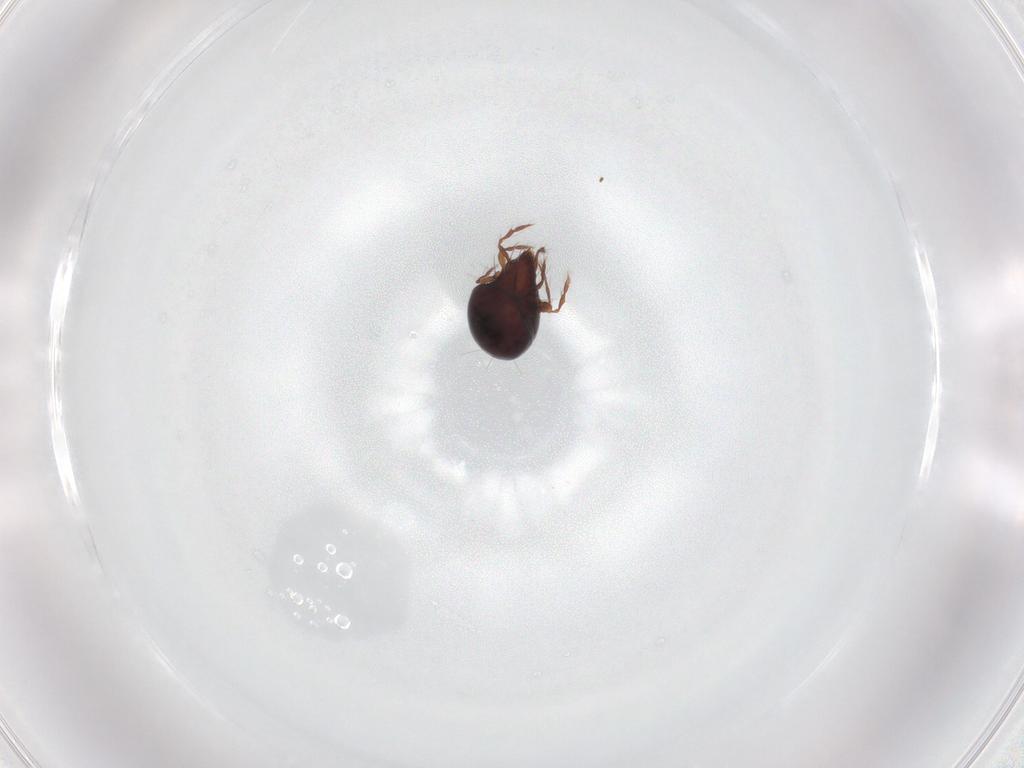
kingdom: Animalia
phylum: Arthropoda
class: Arachnida
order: Sarcoptiformes
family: Ceratoppiidae
